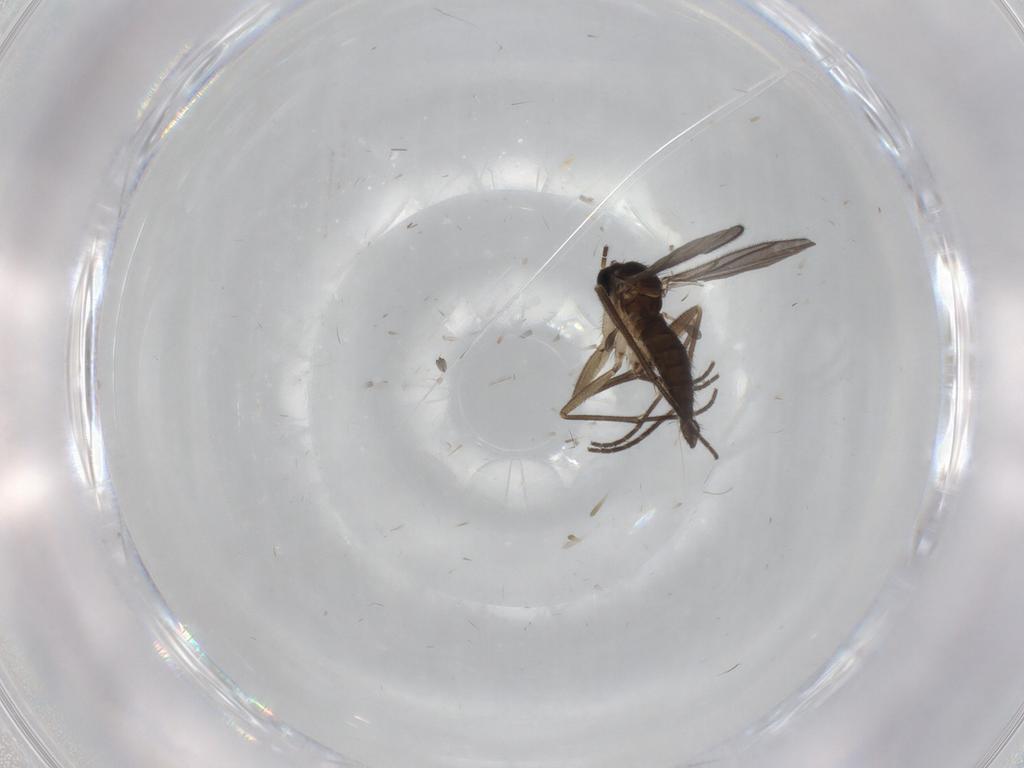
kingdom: Animalia
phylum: Arthropoda
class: Insecta
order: Diptera
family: Sciaridae
